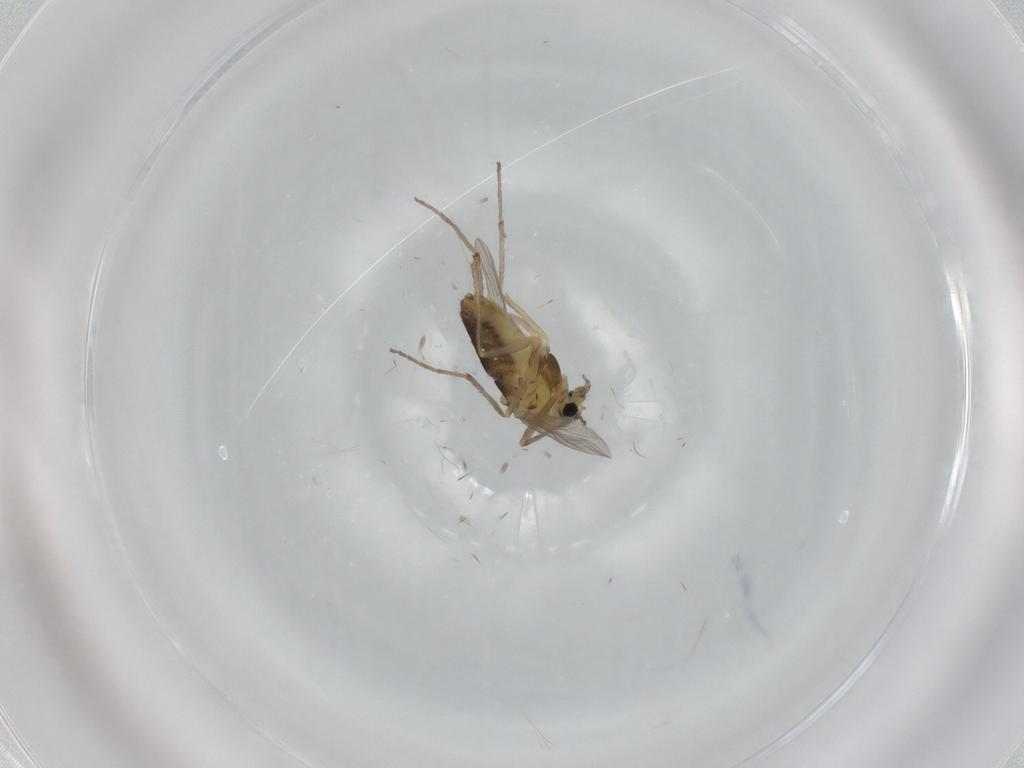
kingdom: Animalia
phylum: Arthropoda
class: Insecta
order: Diptera
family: Chironomidae
